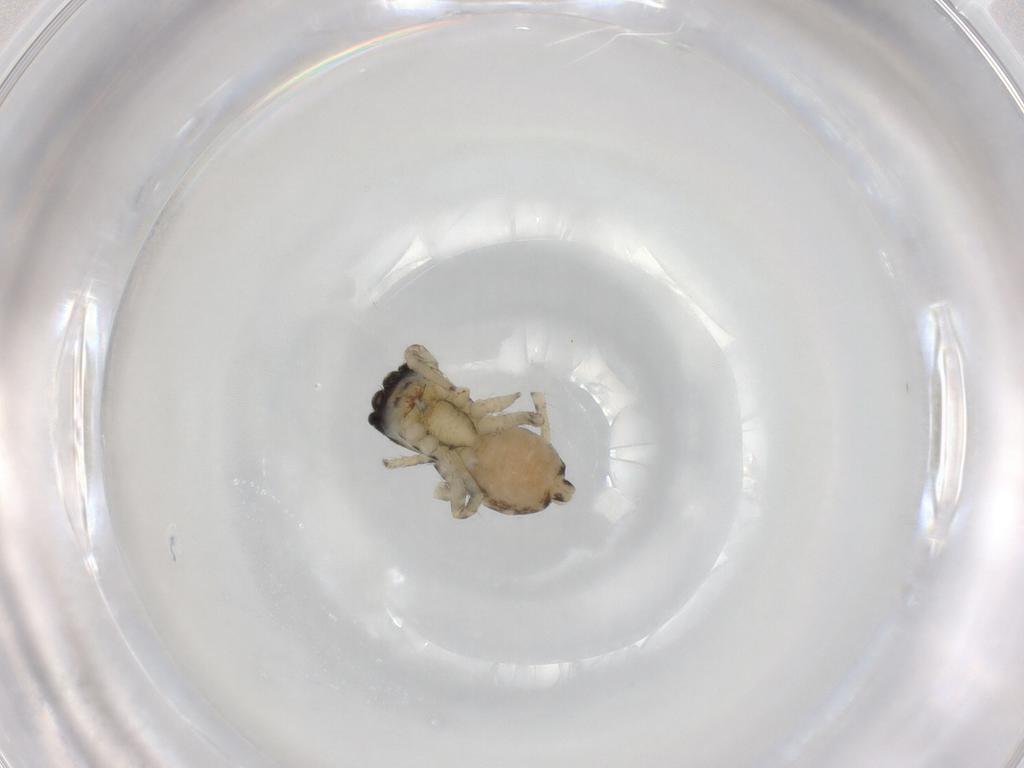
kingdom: Animalia
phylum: Arthropoda
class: Arachnida
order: Araneae
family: Salticidae
